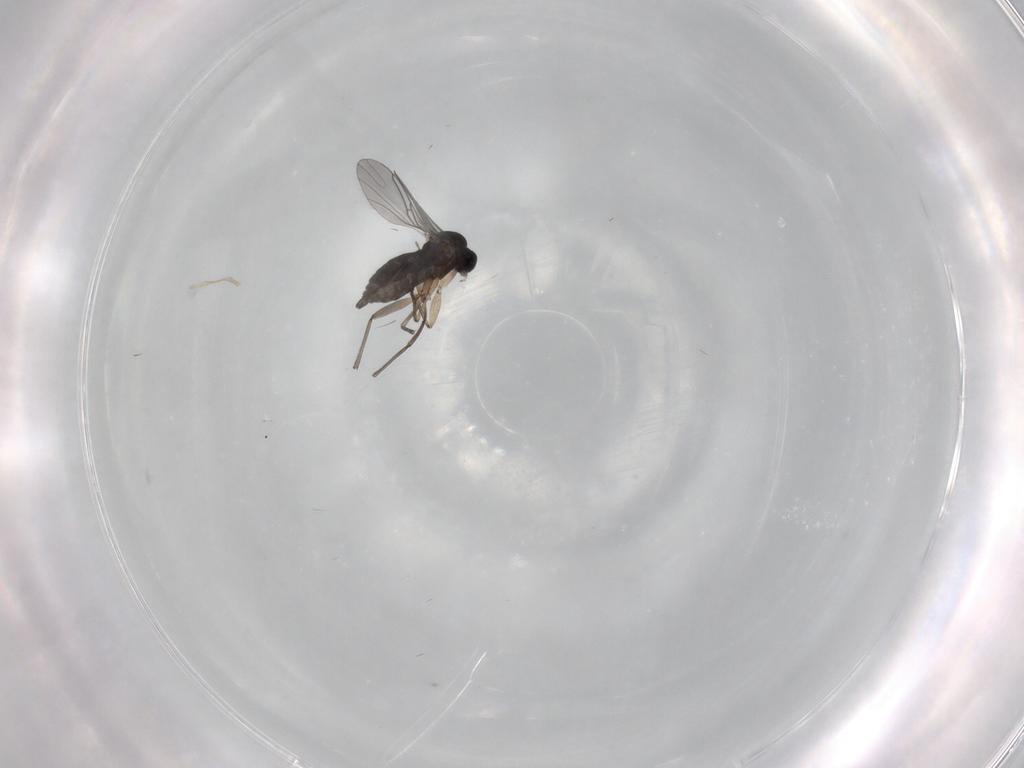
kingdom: Animalia
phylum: Arthropoda
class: Insecta
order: Diptera
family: Sciaridae
